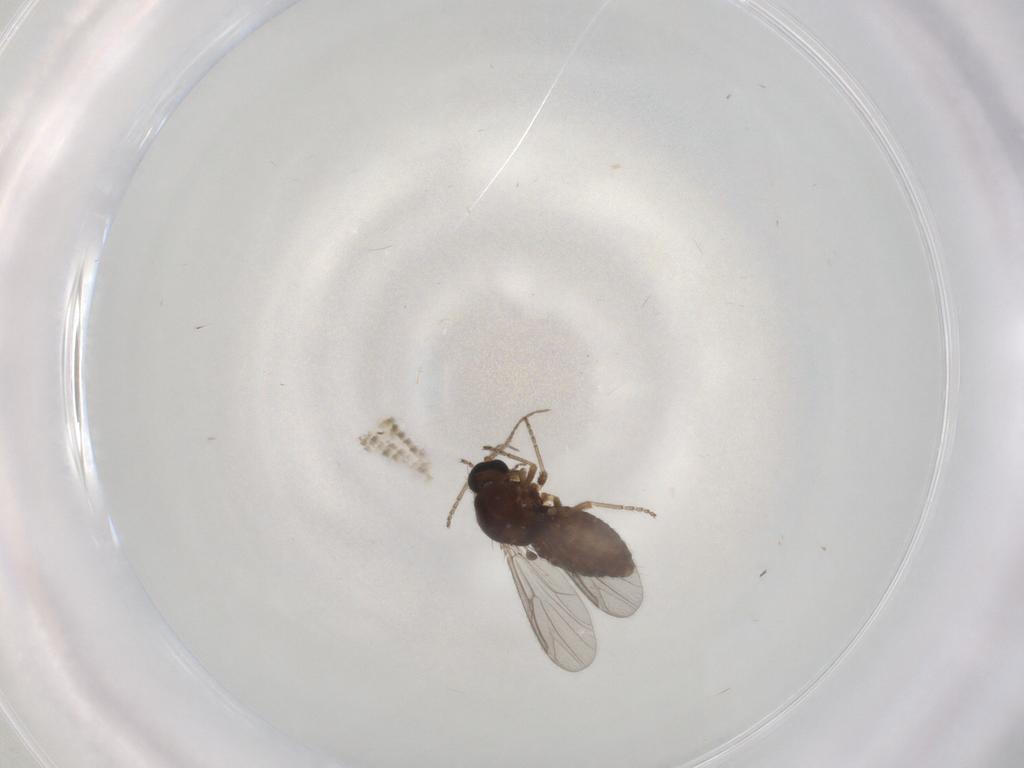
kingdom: Animalia
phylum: Arthropoda
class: Insecta
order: Diptera
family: Ceratopogonidae
